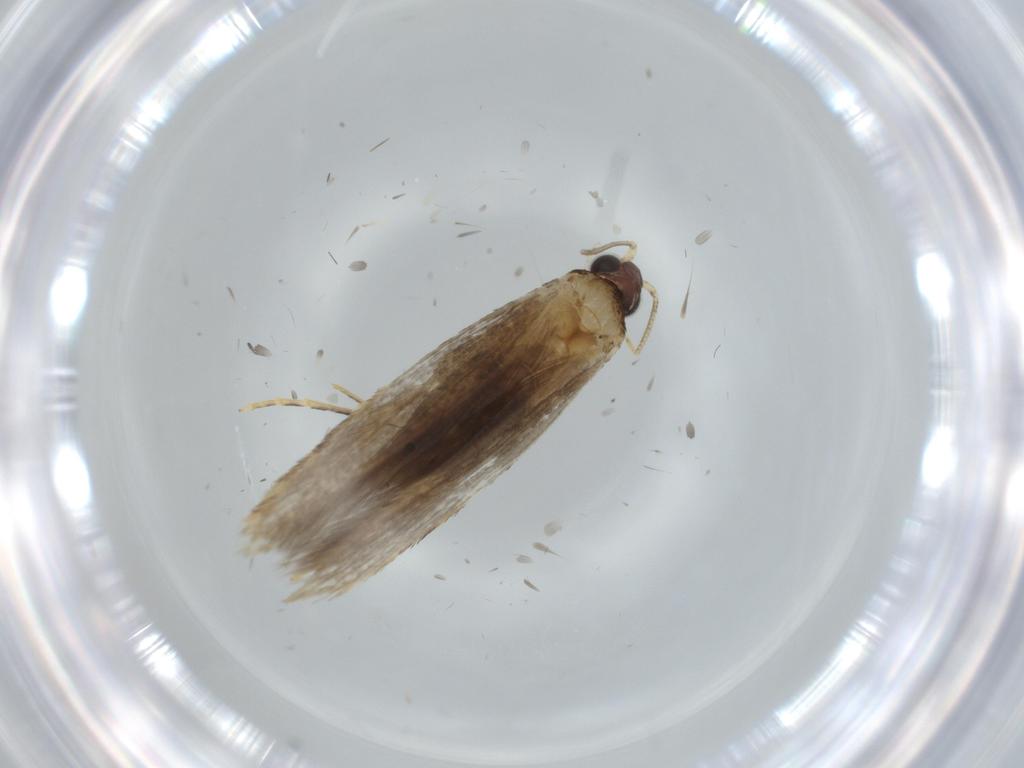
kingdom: Animalia
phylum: Arthropoda
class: Insecta
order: Lepidoptera
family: Tineidae
